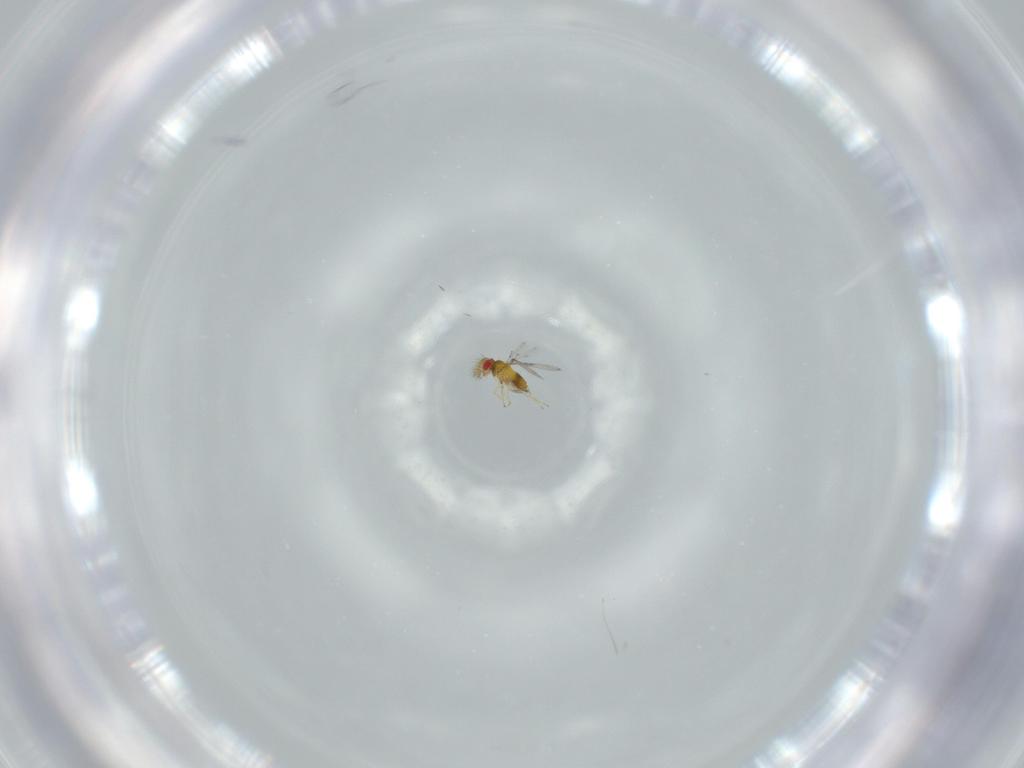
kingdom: Animalia
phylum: Arthropoda
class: Insecta
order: Hymenoptera
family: Trichogrammatidae
